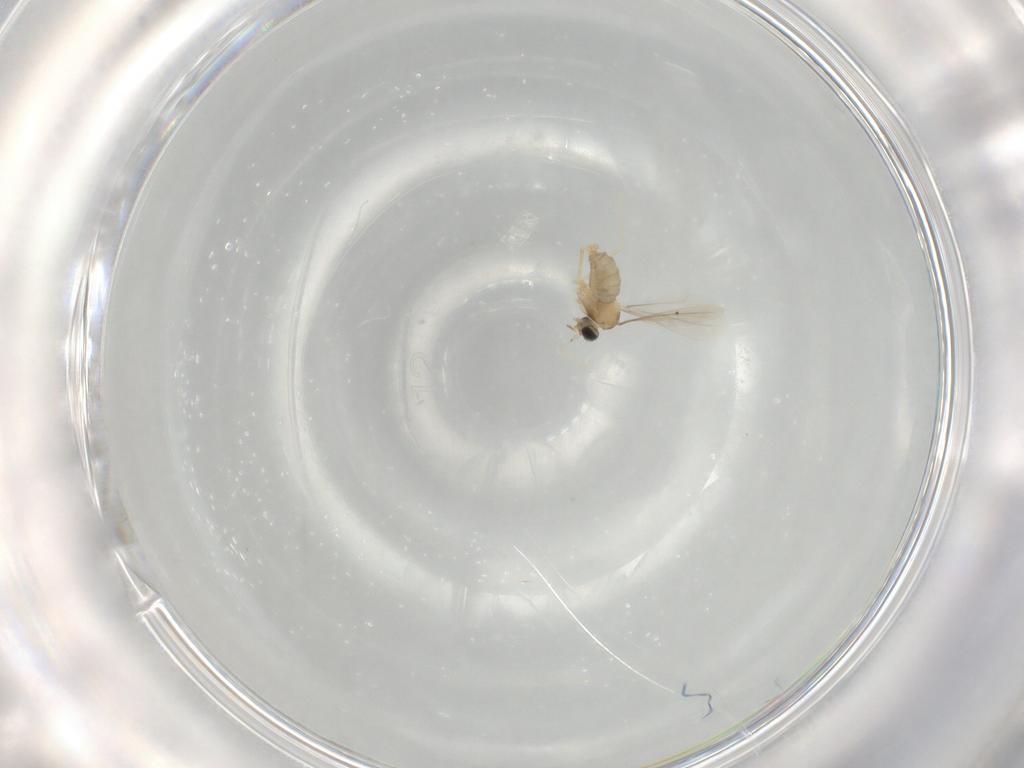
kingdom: Animalia
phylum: Arthropoda
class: Insecta
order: Diptera
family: Cecidomyiidae
